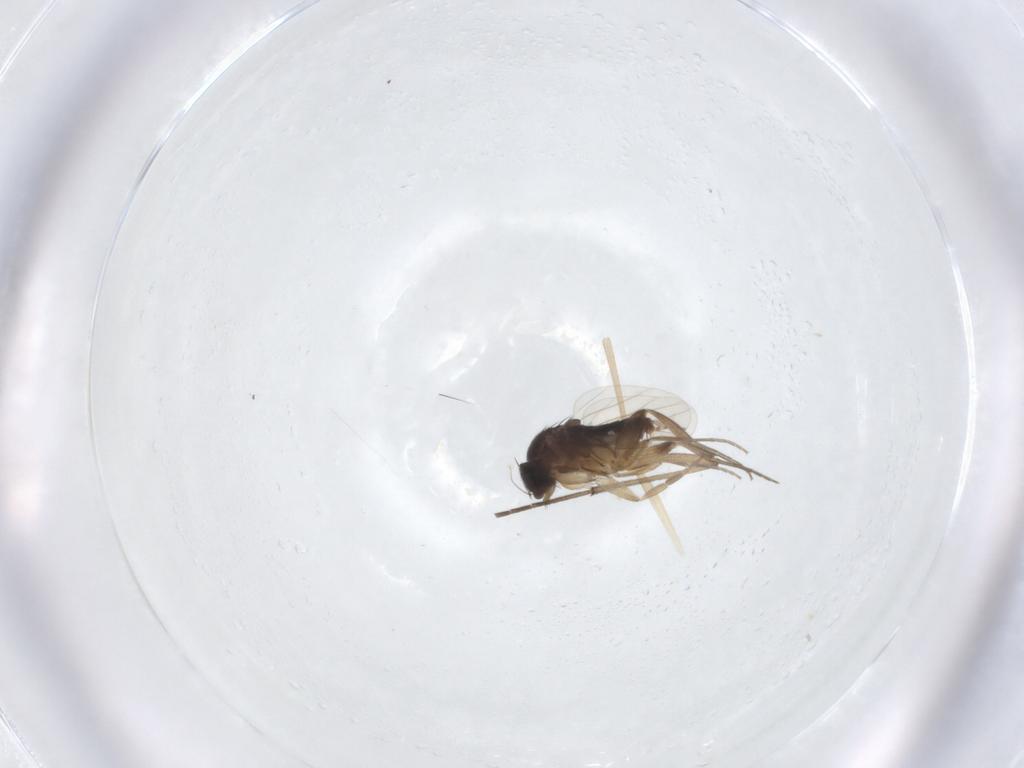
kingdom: Animalia
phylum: Arthropoda
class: Insecta
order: Diptera
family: Phoridae
